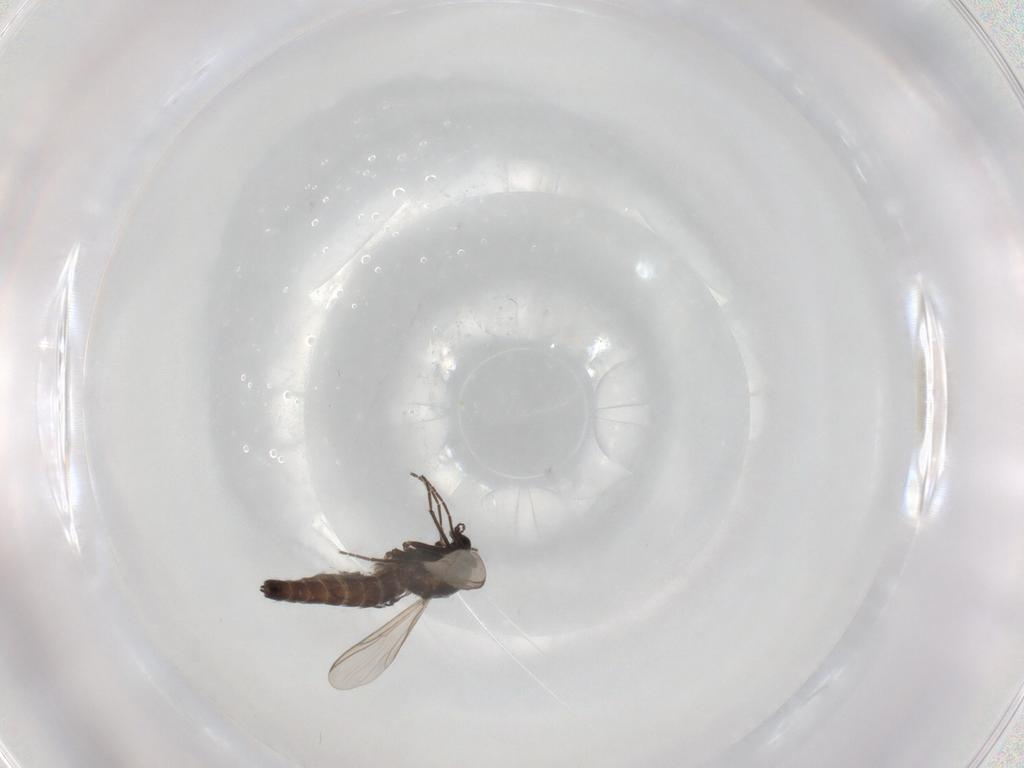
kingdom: Animalia
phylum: Arthropoda
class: Insecta
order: Diptera
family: Chironomidae
